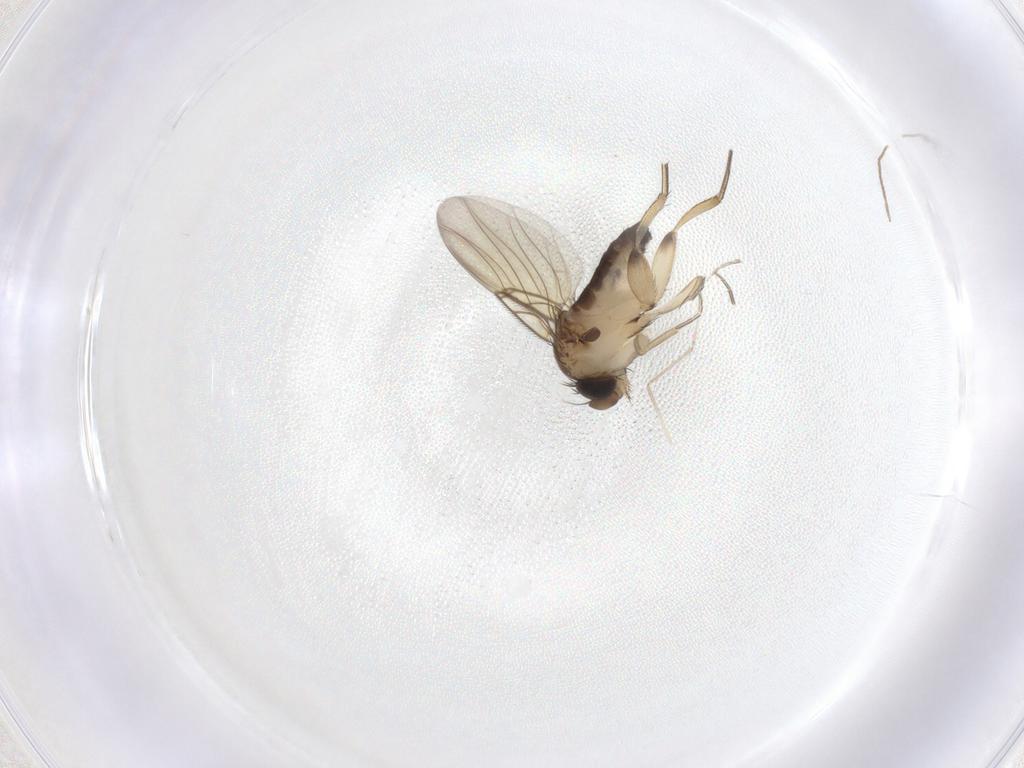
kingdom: Animalia
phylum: Arthropoda
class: Insecta
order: Diptera
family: Phoridae
